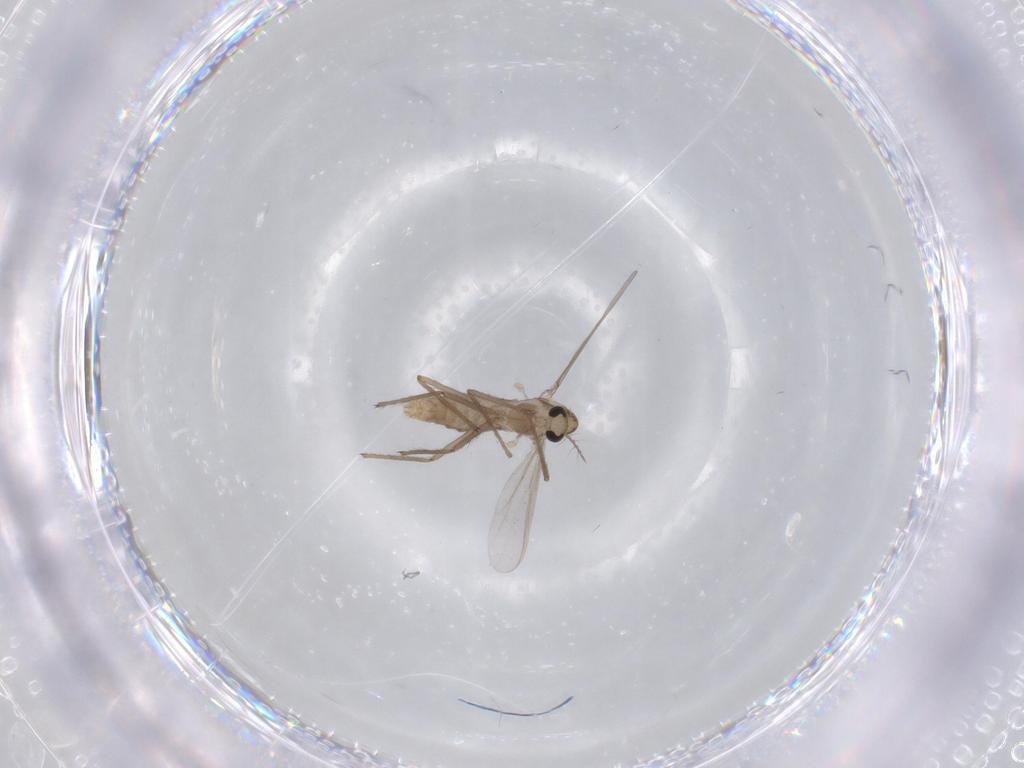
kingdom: Animalia
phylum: Arthropoda
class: Insecta
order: Diptera
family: Chironomidae
